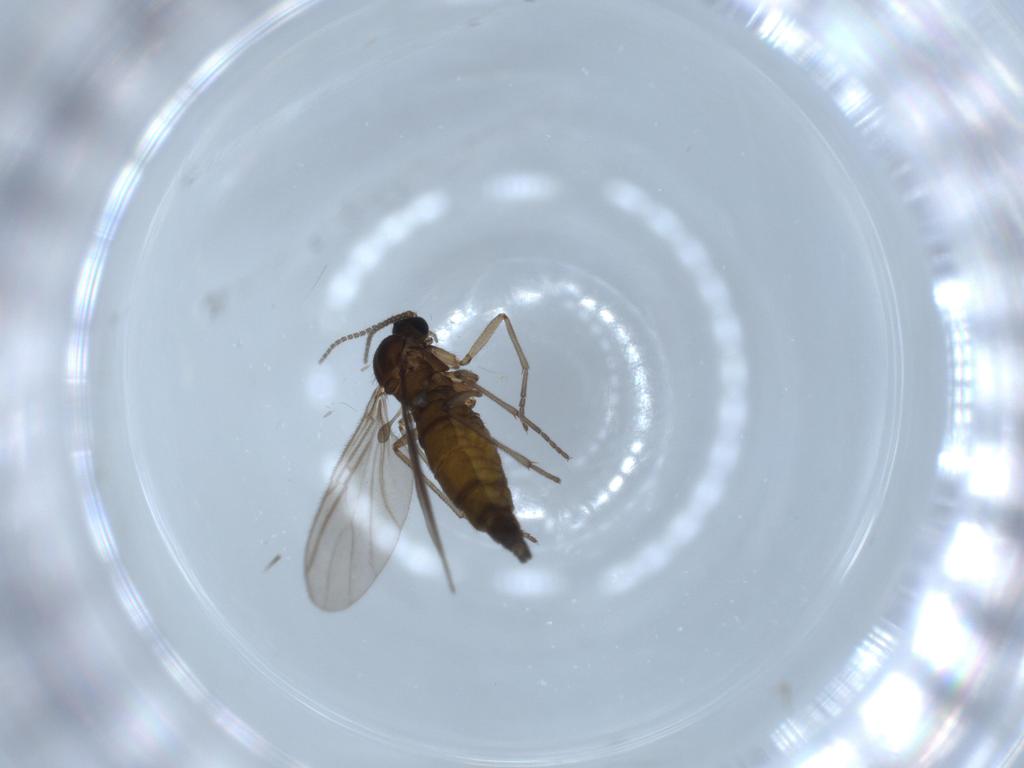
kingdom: Animalia
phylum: Arthropoda
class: Insecta
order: Diptera
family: Sciaridae
